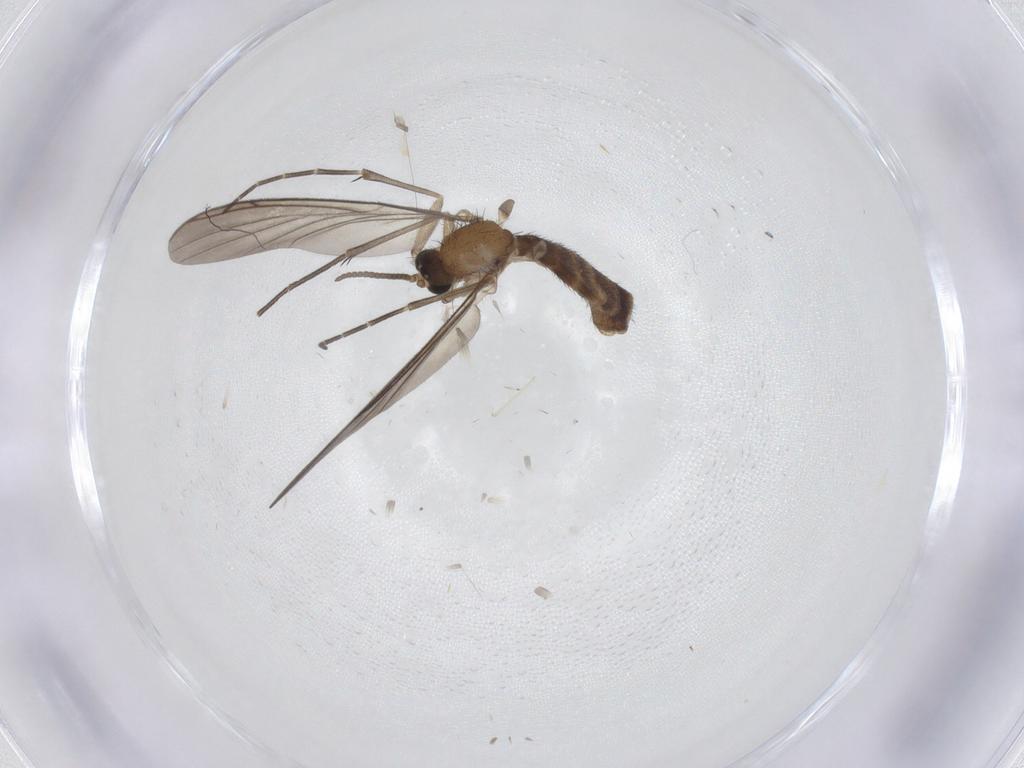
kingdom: Animalia
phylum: Arthropoda
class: Insecta
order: Diptera
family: Keroplatidae
